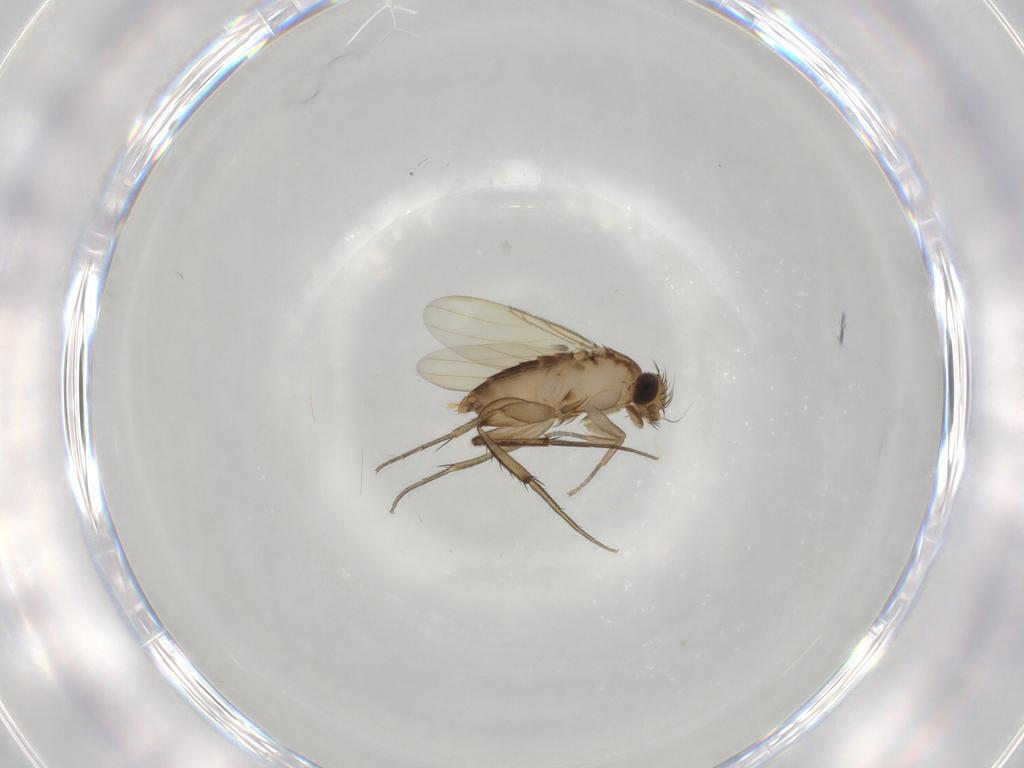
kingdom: Animalia
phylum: Arthropoda
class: Insecta
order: Diptera
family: Phoridae
